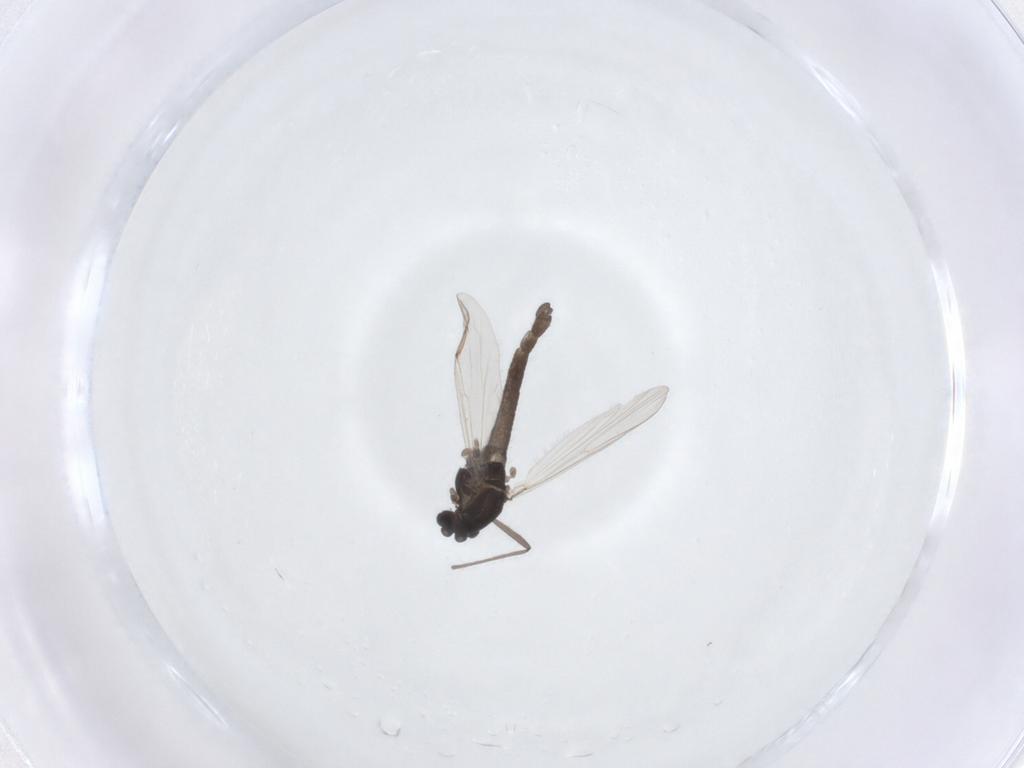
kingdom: Animalia
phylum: Arthropoda
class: Insecta
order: Diptera
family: Chironomidae
